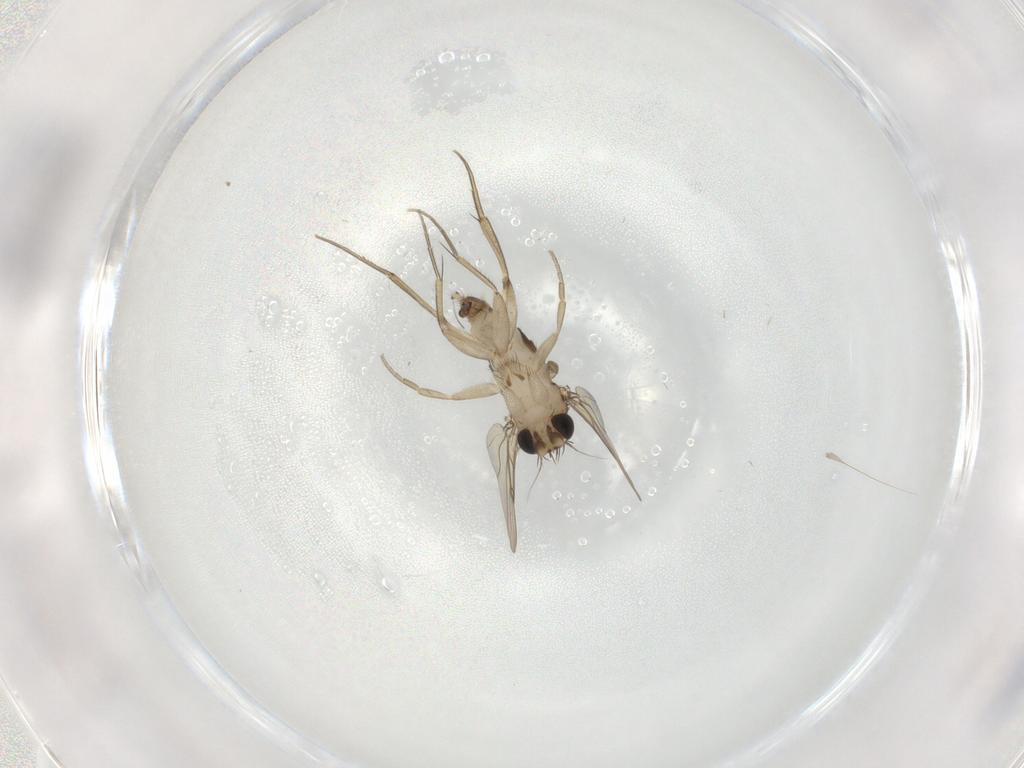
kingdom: Animalia
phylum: Arthropoda
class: Insecta
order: Diptera
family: Phoridae
